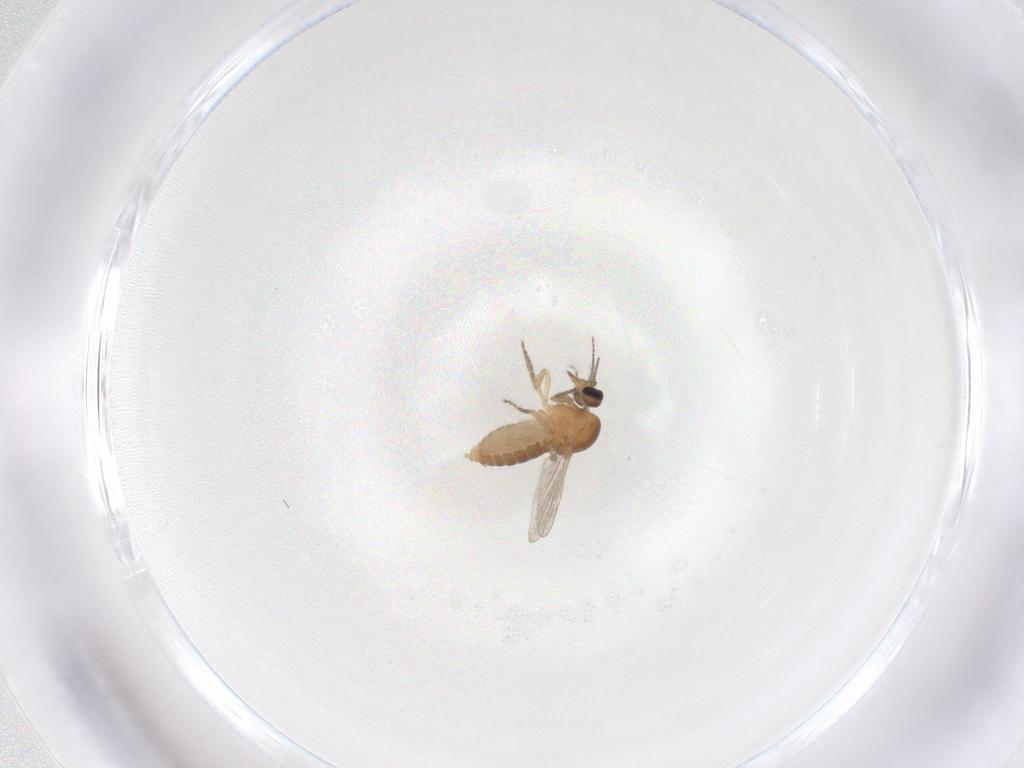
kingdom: Animalia
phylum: Arthropoda
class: Insecta
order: Diptera
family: Ceratopogonidae
